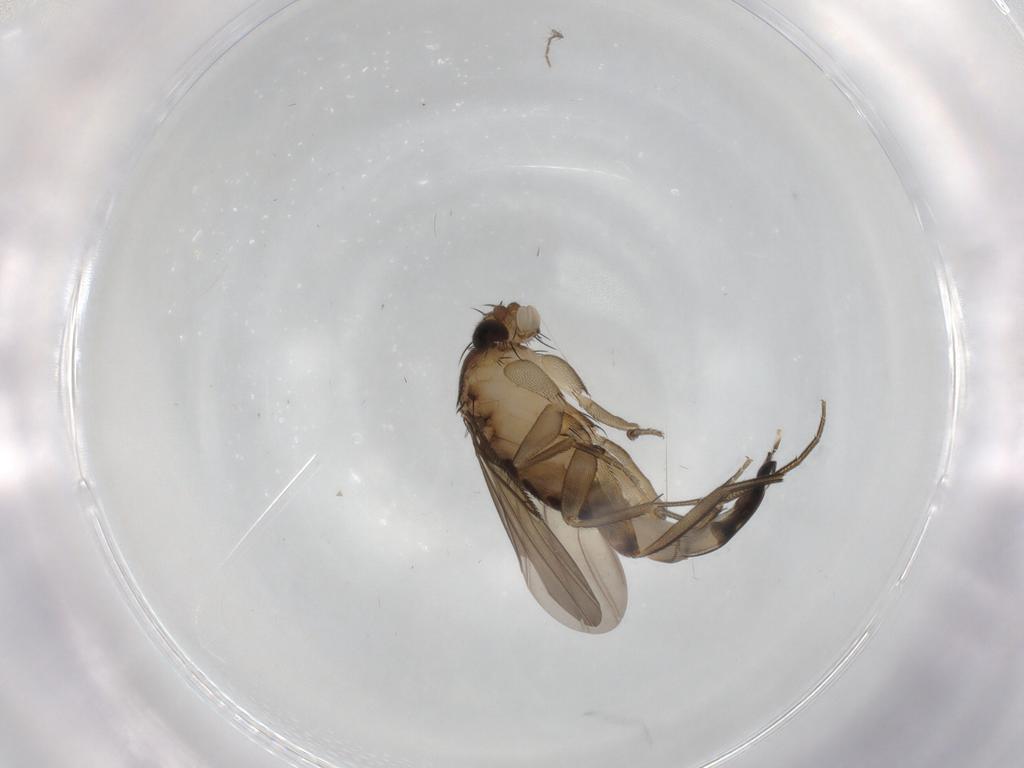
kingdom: Animalia
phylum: Arthropoda
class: Insecta
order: Diptera
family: Phoridae
